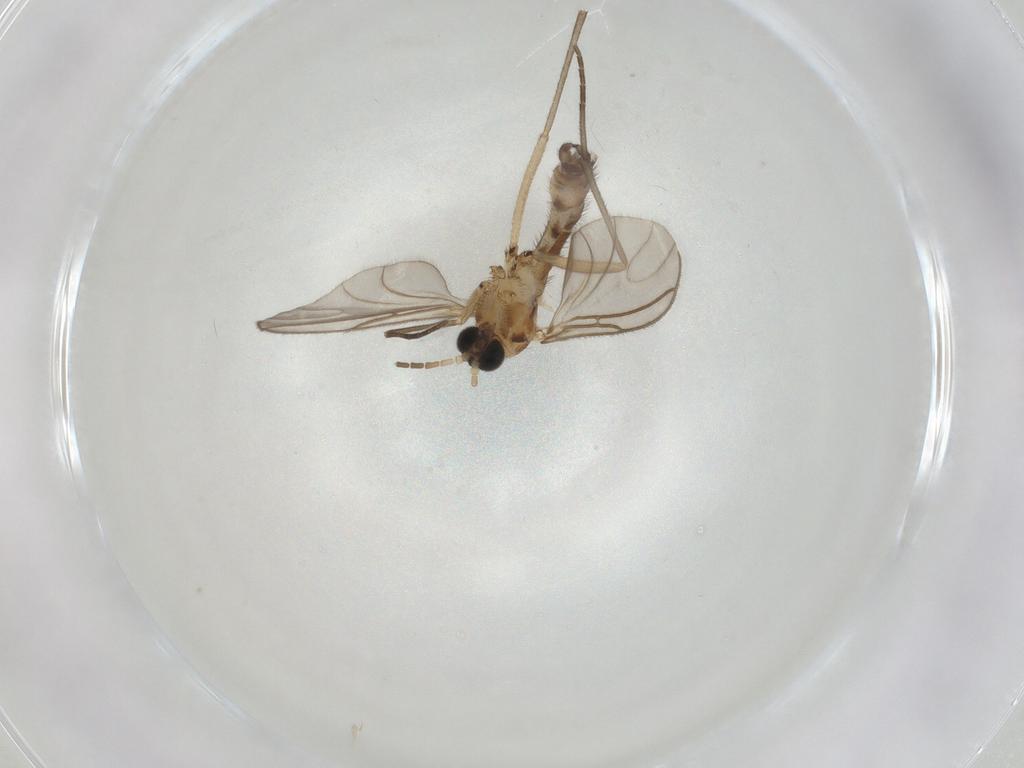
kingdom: Animalia
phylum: Arthropoda
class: Insecta
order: Diptera
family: Sciaridae
